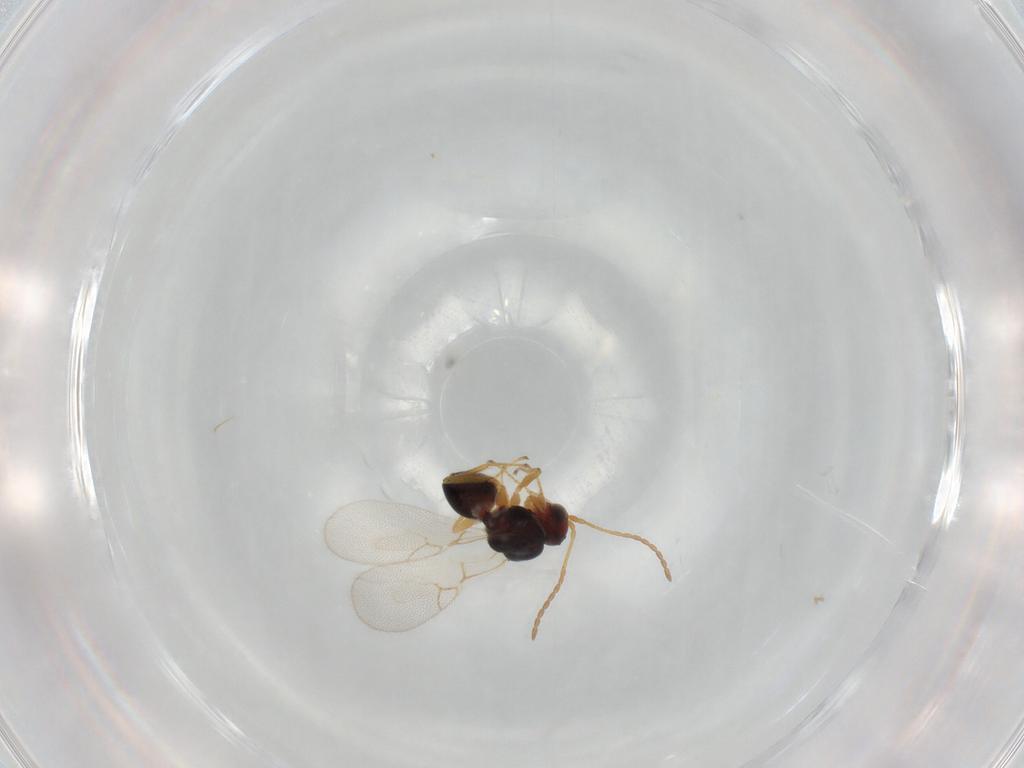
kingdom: Animalia
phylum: Arthropoda
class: Insecta
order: Hymenoptera
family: Figitidae
